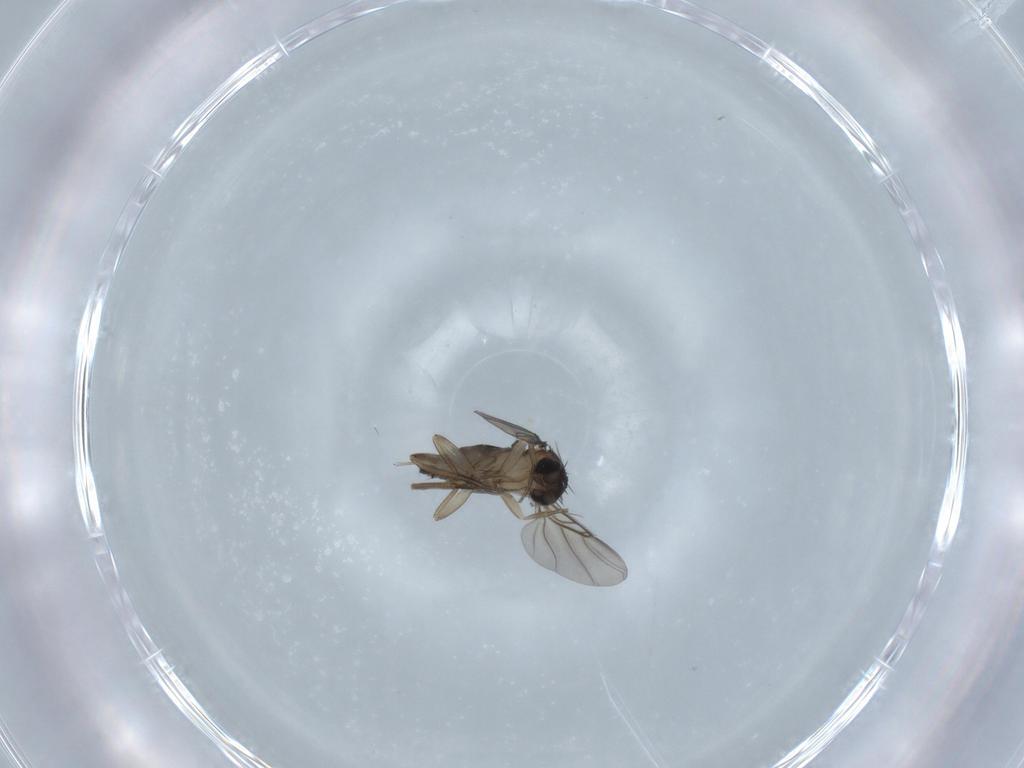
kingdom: Animalia
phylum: Arthropoda
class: Insecta
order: Diptera
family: Phoridae
